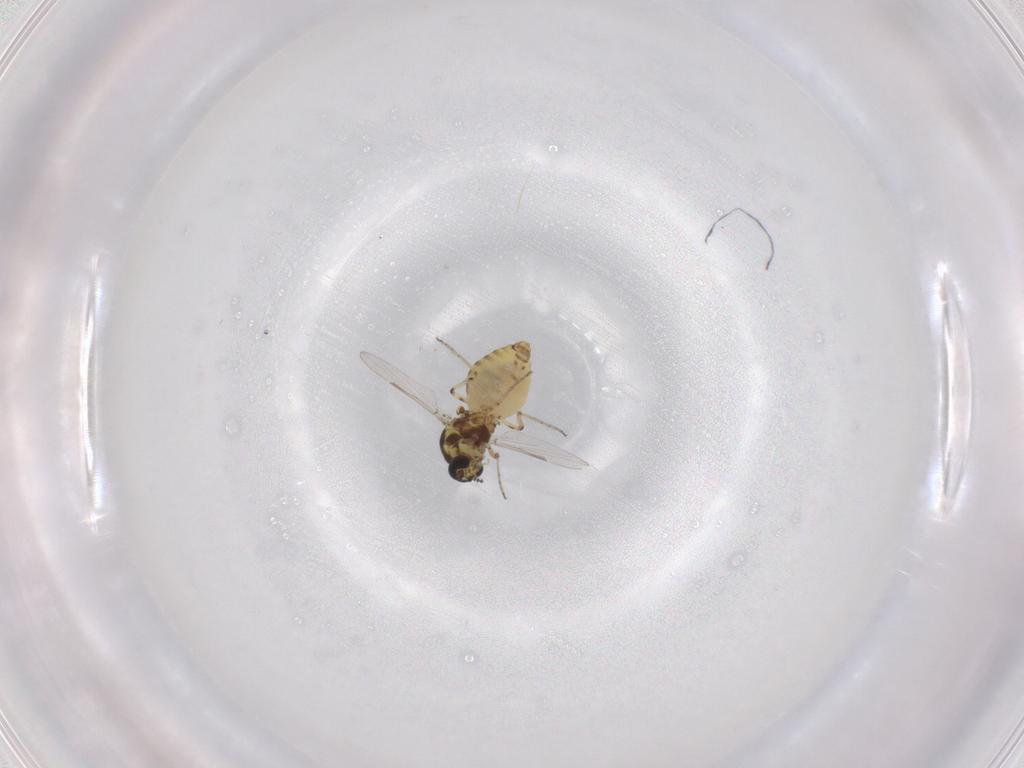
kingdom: Animalia
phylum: Arthropoda
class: Insecta
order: Diptera
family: Ceratopogonidae
